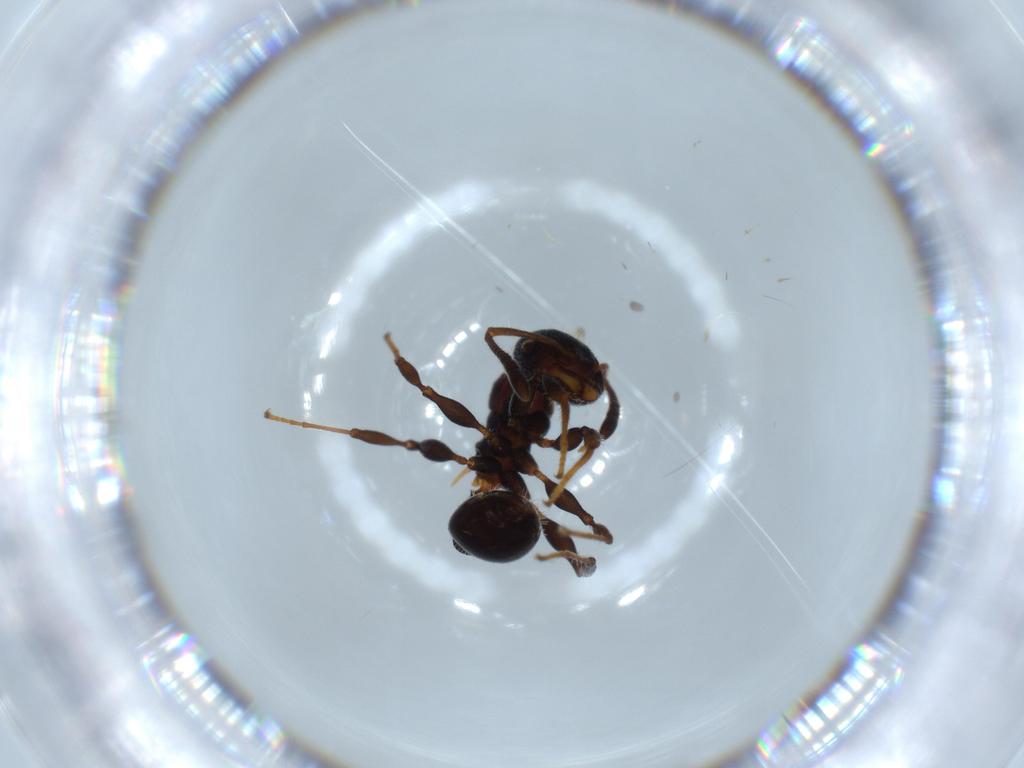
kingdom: Animalia
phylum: Arthropoda
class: Insecta
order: Hymenoptera
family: Formicidae
